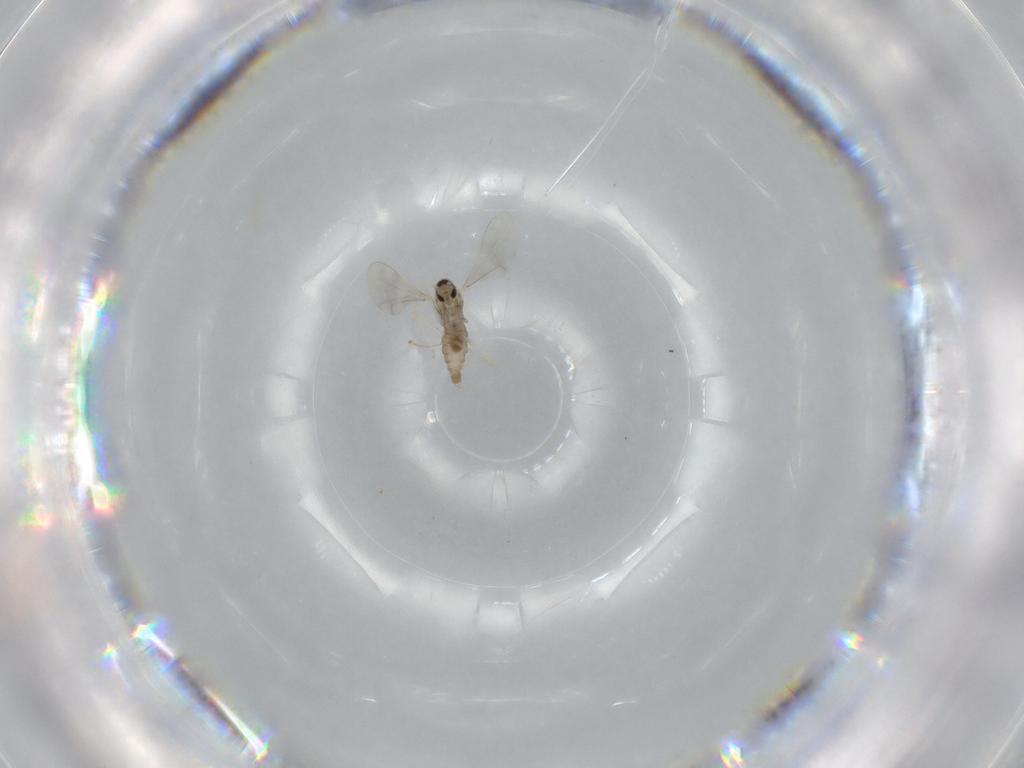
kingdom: Animalia
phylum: Arthropoda
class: Insecta
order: Diptera
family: Cecidomyiidae
